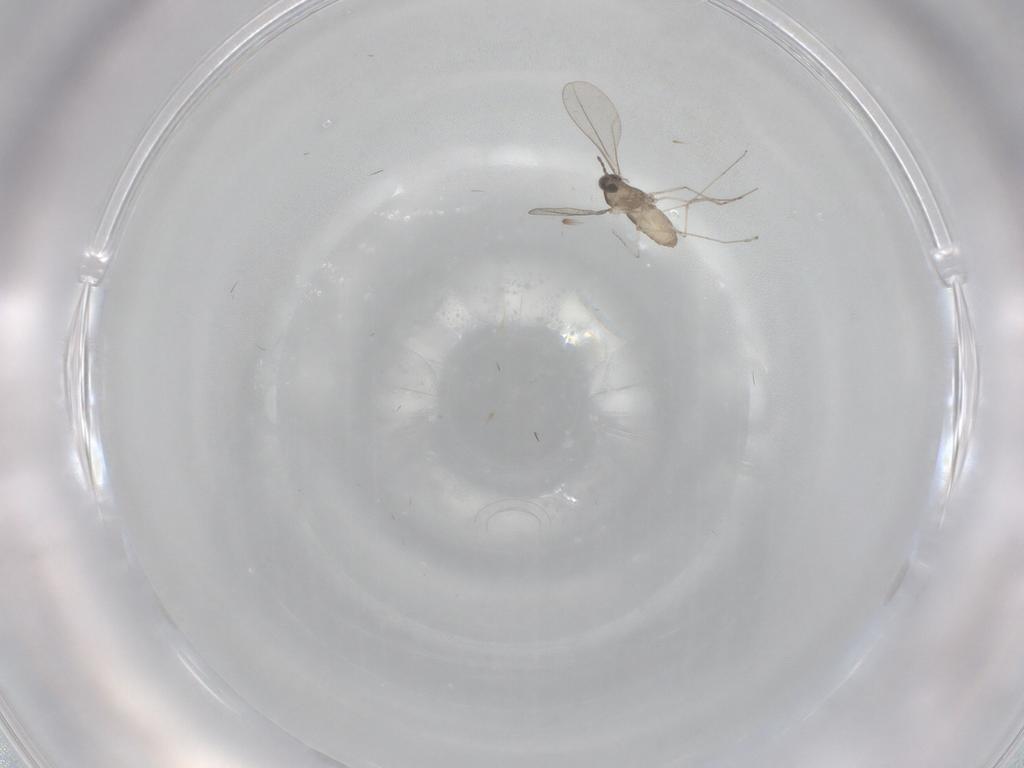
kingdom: Animalia
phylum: Arthropoda
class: Insecta
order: Diptera
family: Cecidomyiidae
